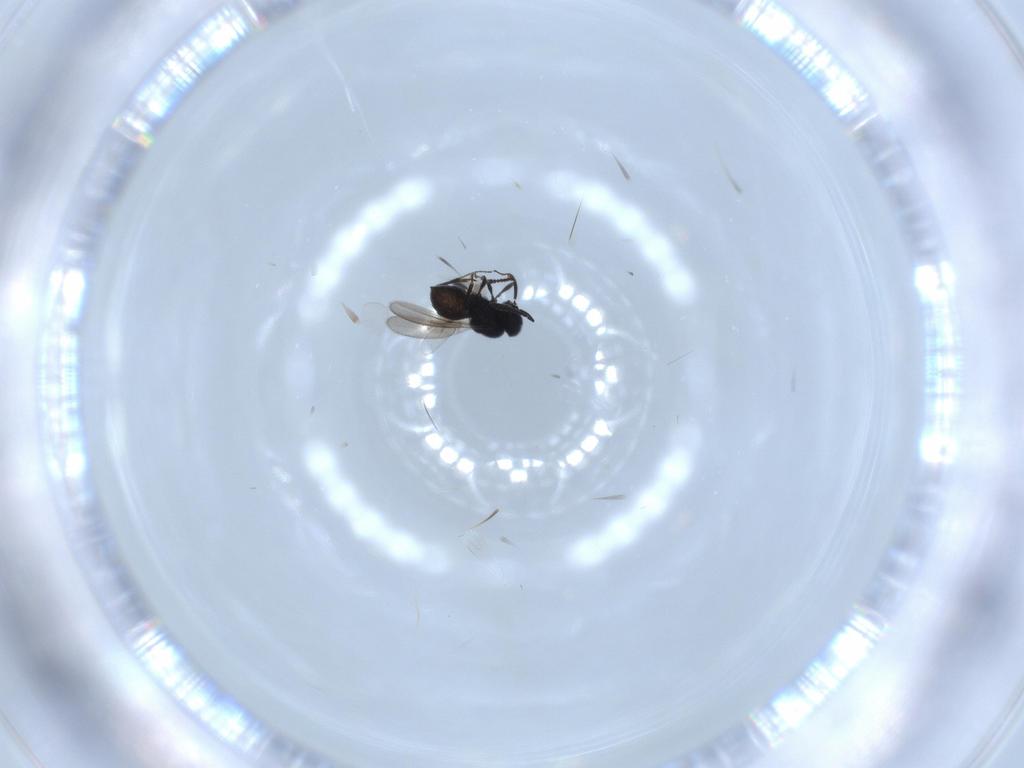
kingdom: Animalia
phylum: Arthropoda
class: Insecta
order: Hymenoptera
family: Scelionidae
